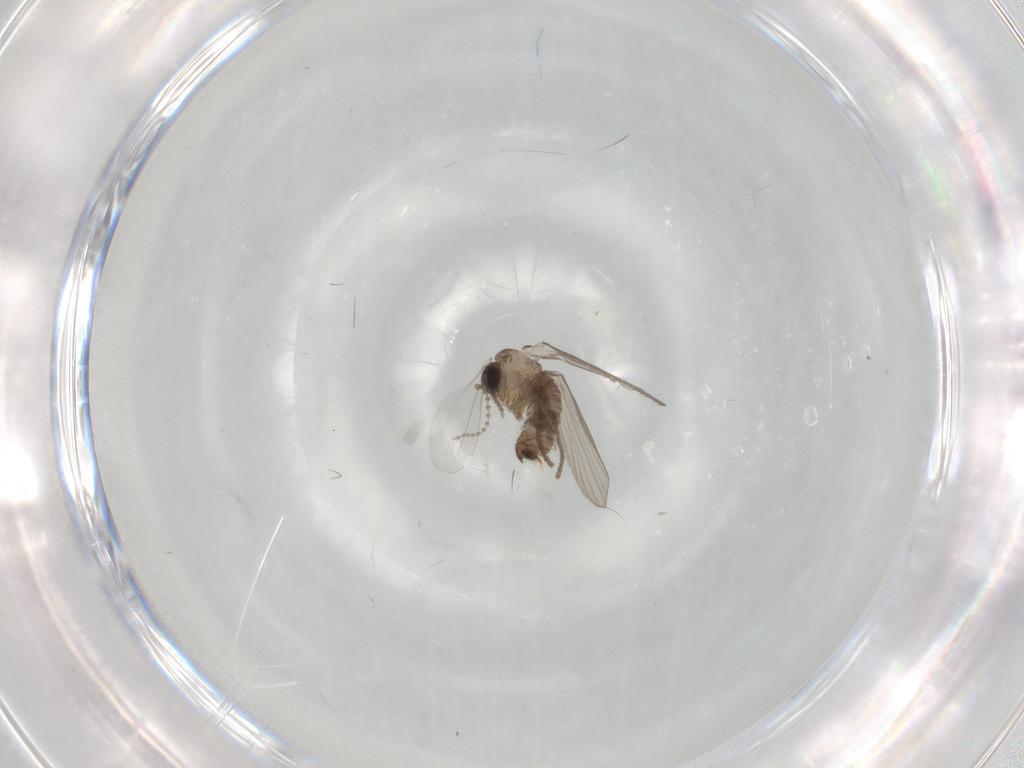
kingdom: Animalia
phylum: Arthropoda
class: Insecta
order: Diptera
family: Psychodidae
